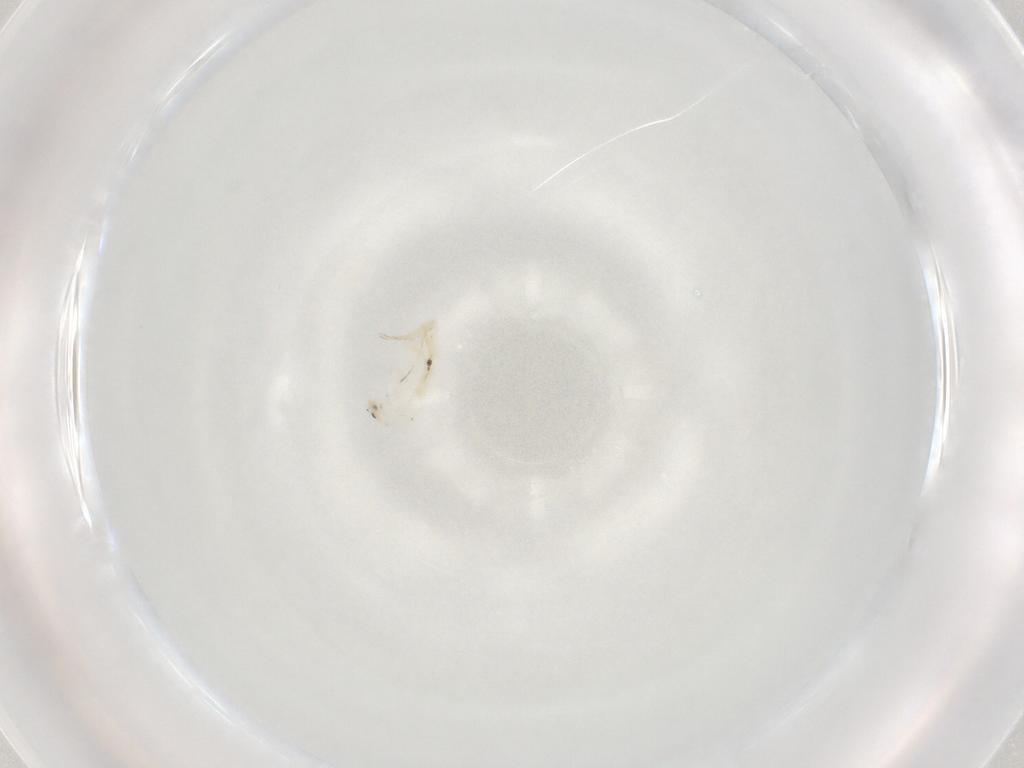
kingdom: Animalia
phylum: Arthropoda
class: Collembola
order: Entomobryomorpha
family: Entomobryidae
